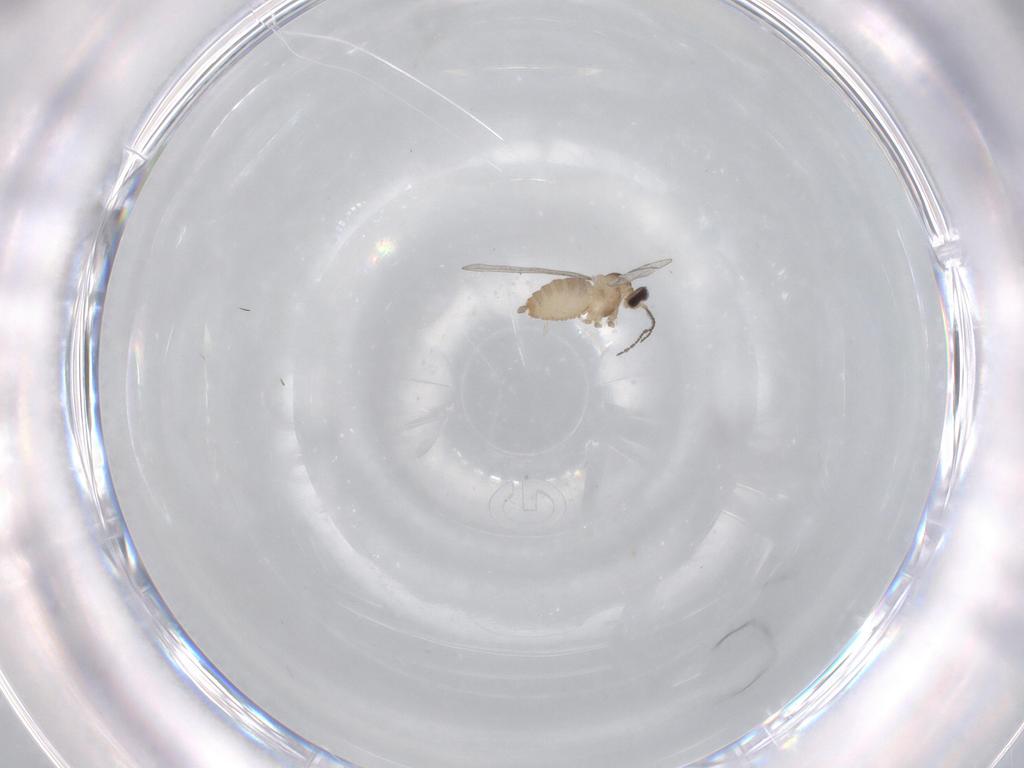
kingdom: Animalia
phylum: Arthropoda
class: Insecta
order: Diptera
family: Cecidomyiidae
